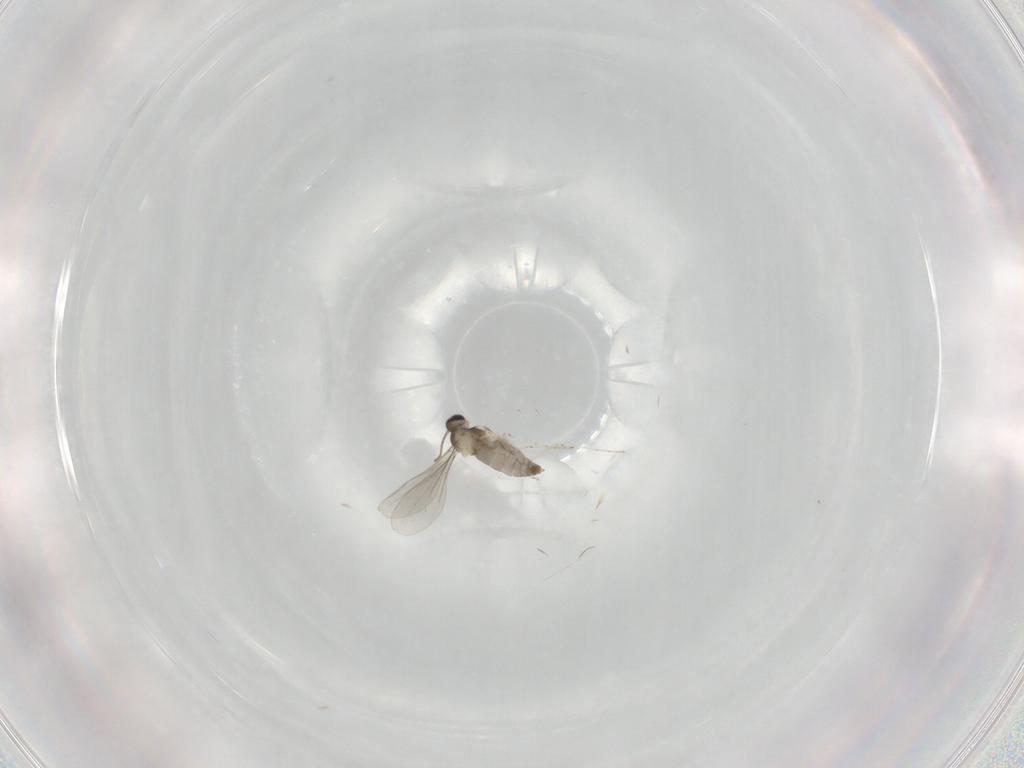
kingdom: Animalia
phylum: Arthropoda
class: Insecta
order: Diptera
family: Cecidomyiidae
